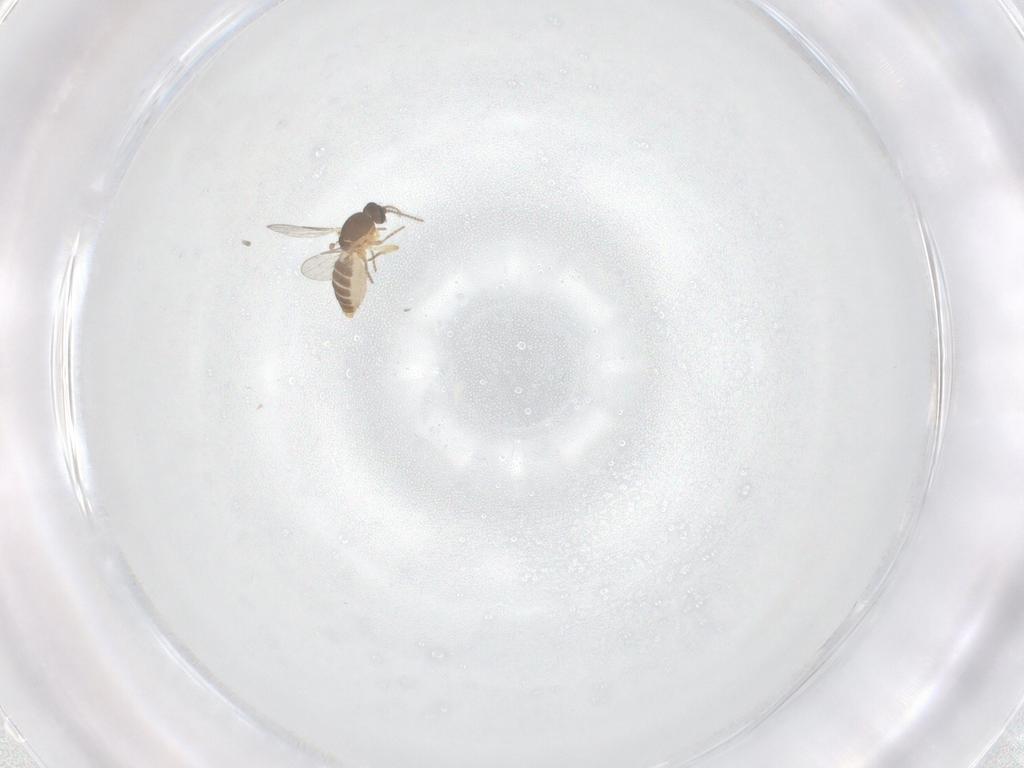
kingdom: Animalia
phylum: Arthropoda
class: Insecta
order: Diptera
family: Ceratopogonidae
